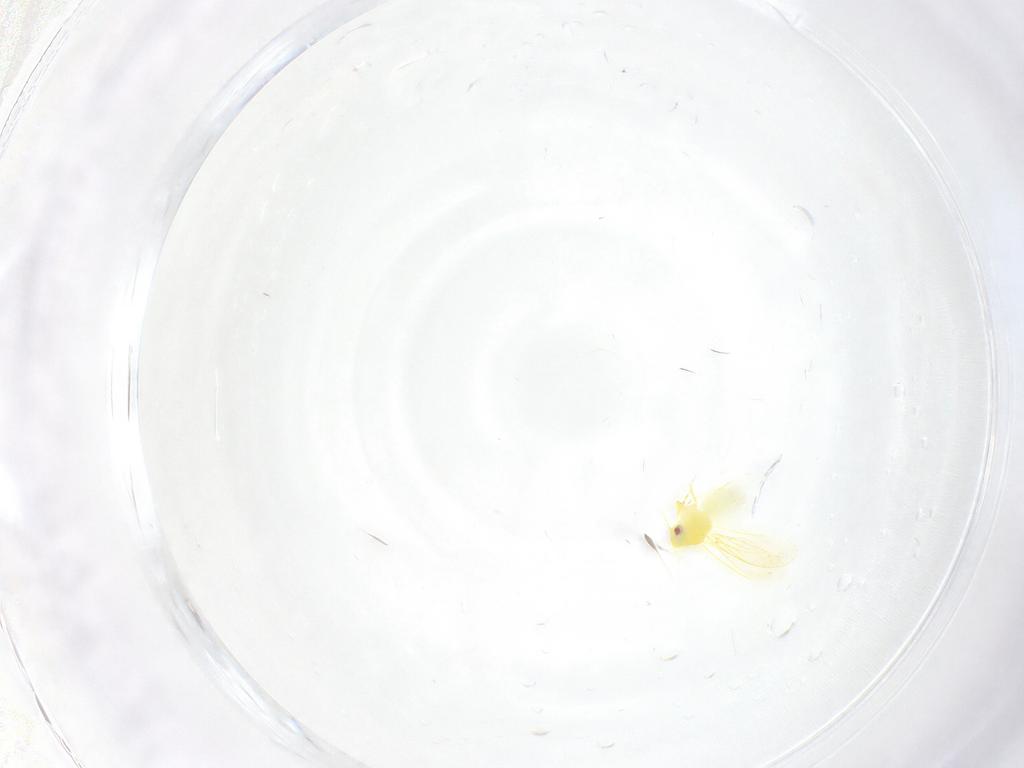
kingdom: Animalia
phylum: Arthropoda
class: Insecta
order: Hemiptera
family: Aleyrodidae
